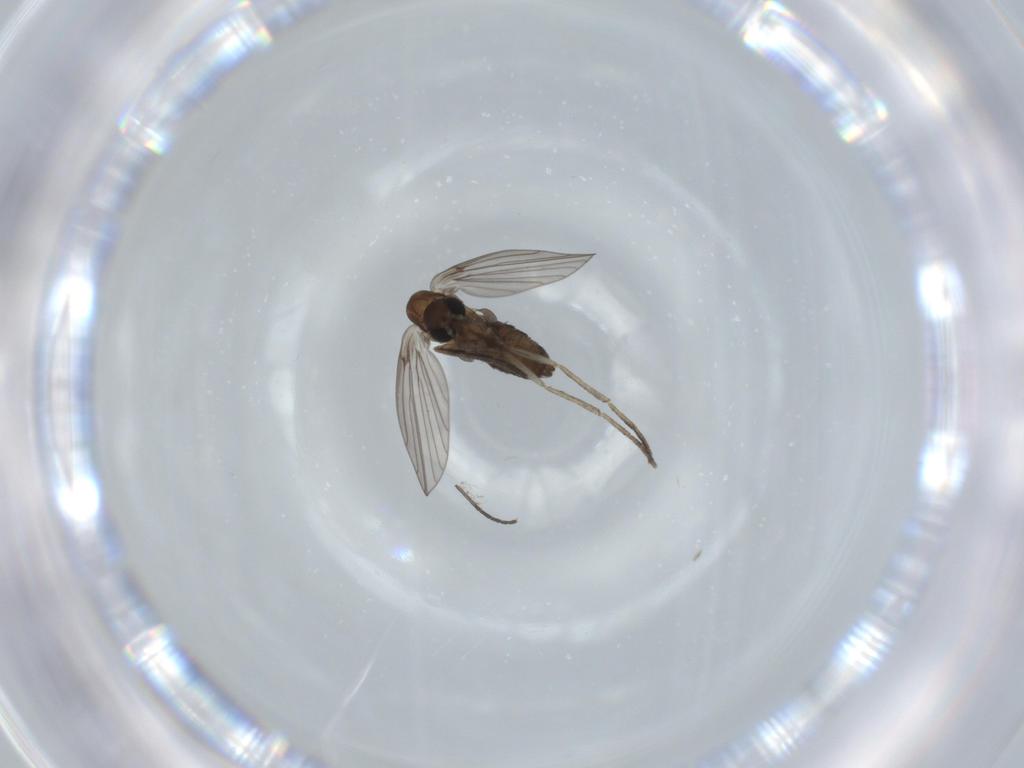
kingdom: Animalia
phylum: Arthropoda
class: Insecta
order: Diptera
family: Psychodidae
